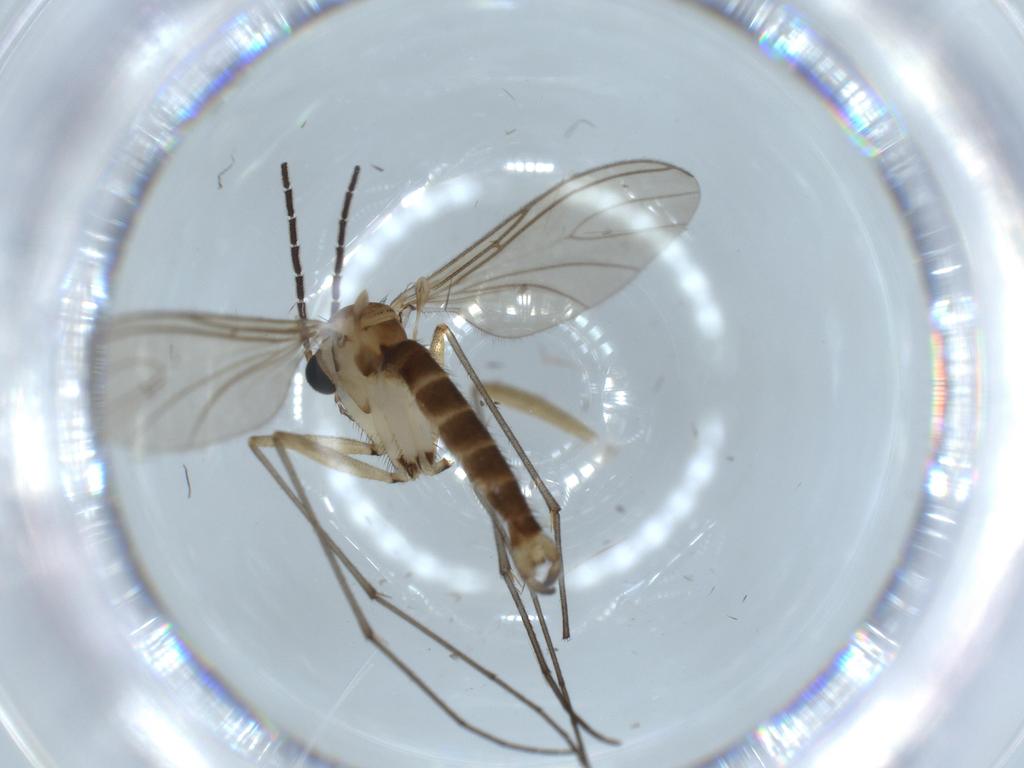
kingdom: Animalia
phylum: Arthropoda
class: Insecta
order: Diptera
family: Sciaridae
